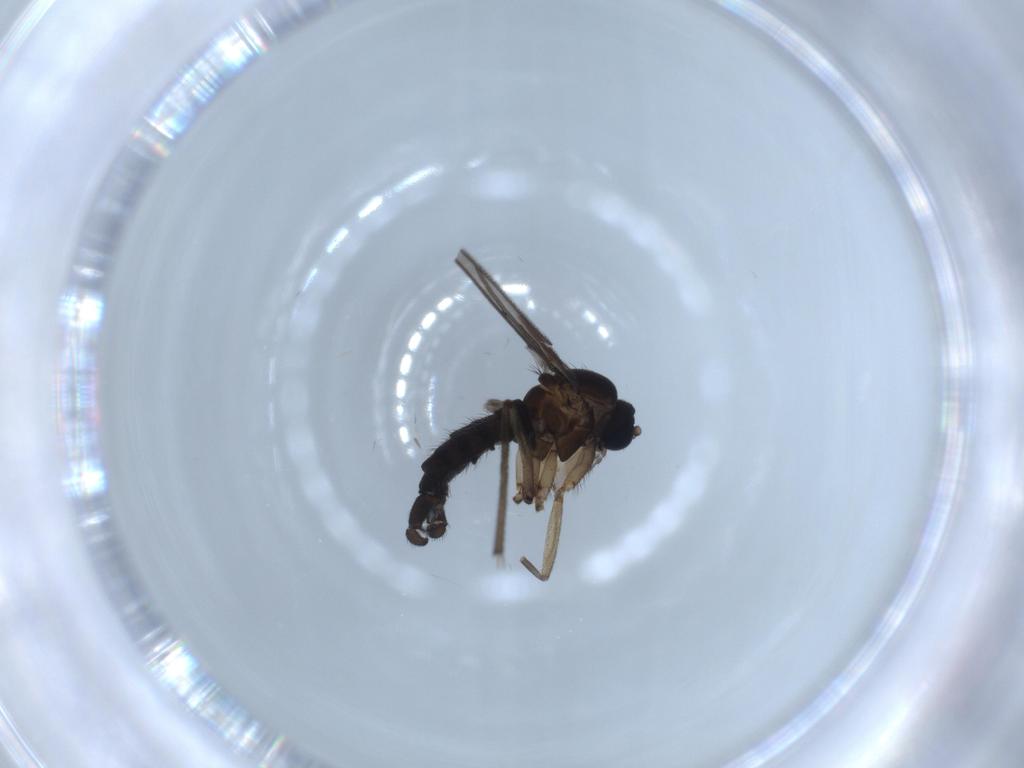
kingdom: Animalia
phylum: Arthropoda
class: Insecta
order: Diptera
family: Sciaridae
